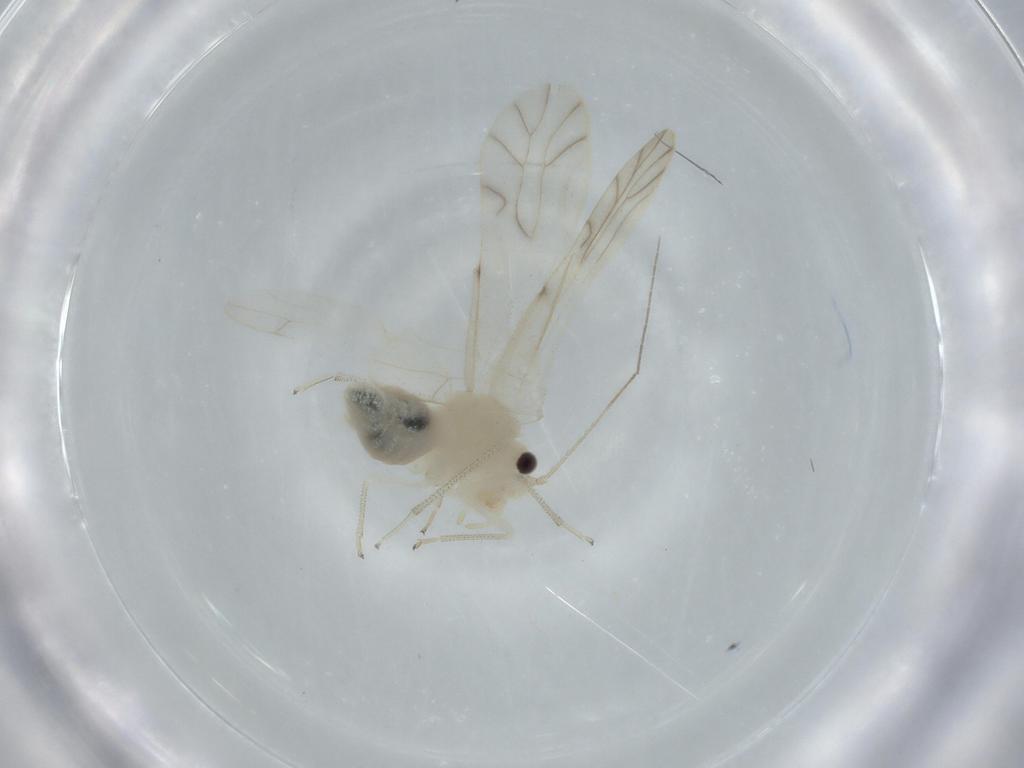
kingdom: Animalia
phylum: Arthropoda
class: Insecta
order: Psocodea
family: Caeciliusidae
